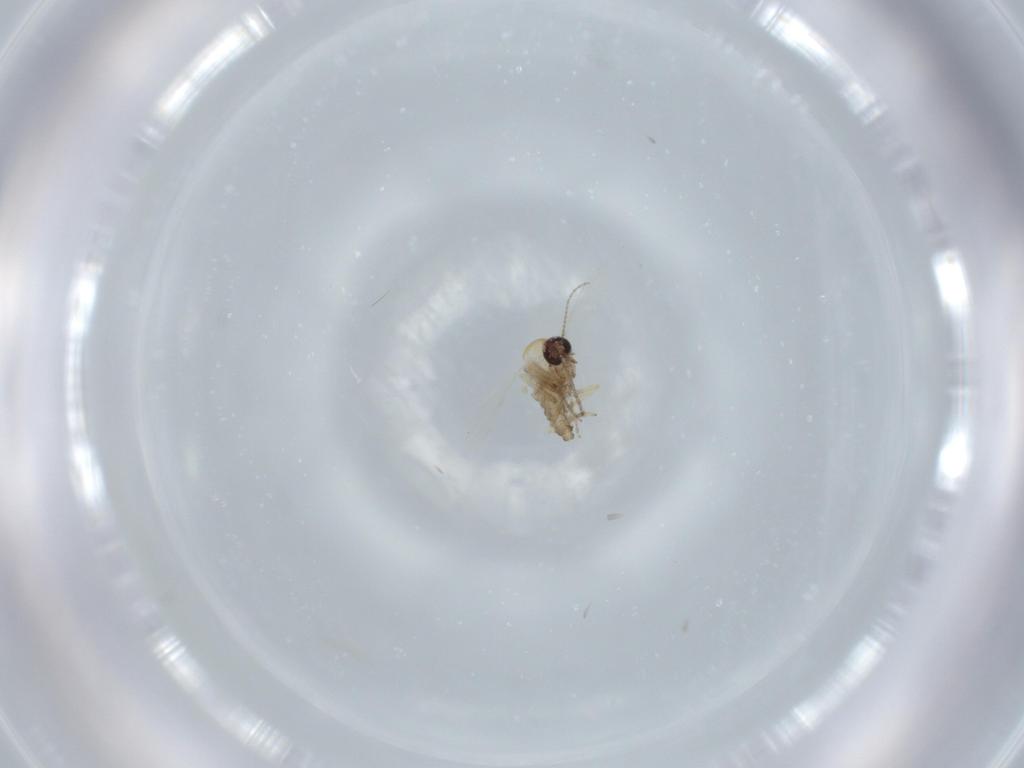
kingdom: Animalia
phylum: Arthropoda
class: Insecta
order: Diptera
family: Ceratopogonidae
